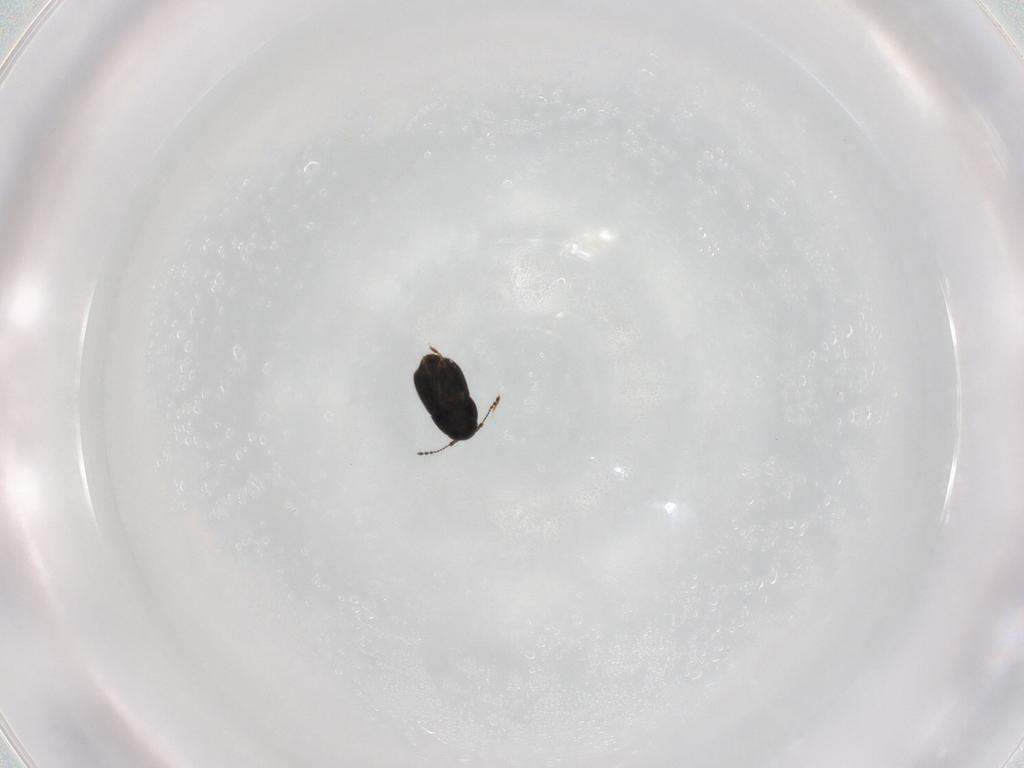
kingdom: Animalia
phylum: Arthropoda
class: Insecta
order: Coleoptera
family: Ptiliidae
